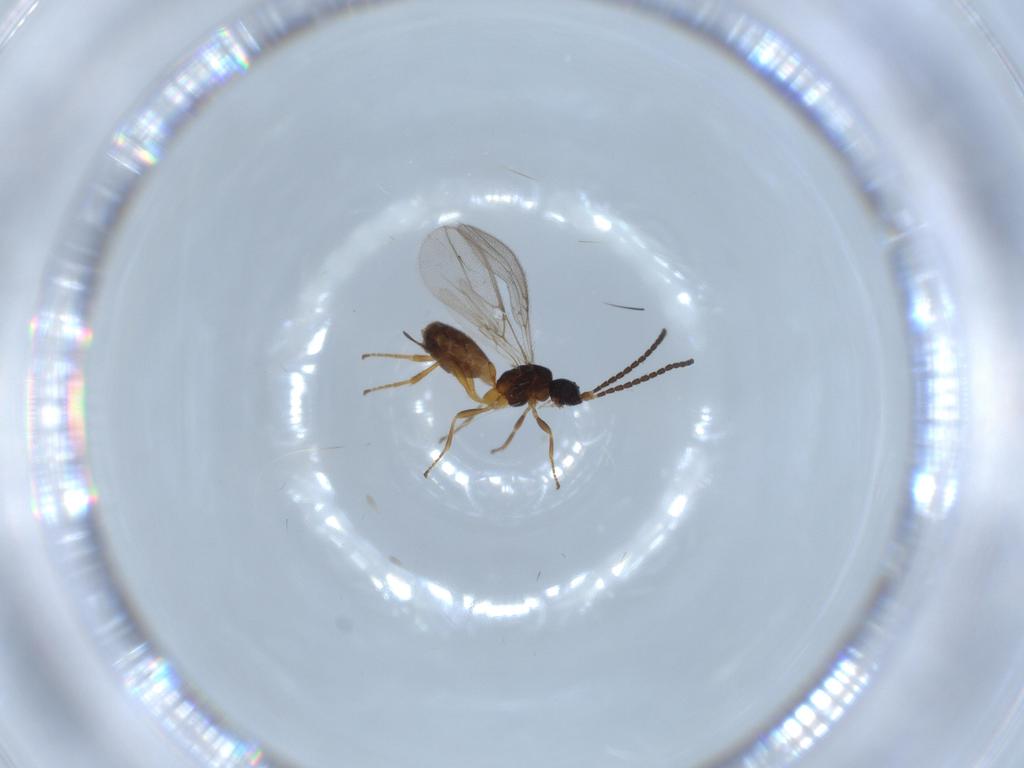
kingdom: Animalia
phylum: Arthropoda
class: Insecta
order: Hymenoptera
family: Braconidae
